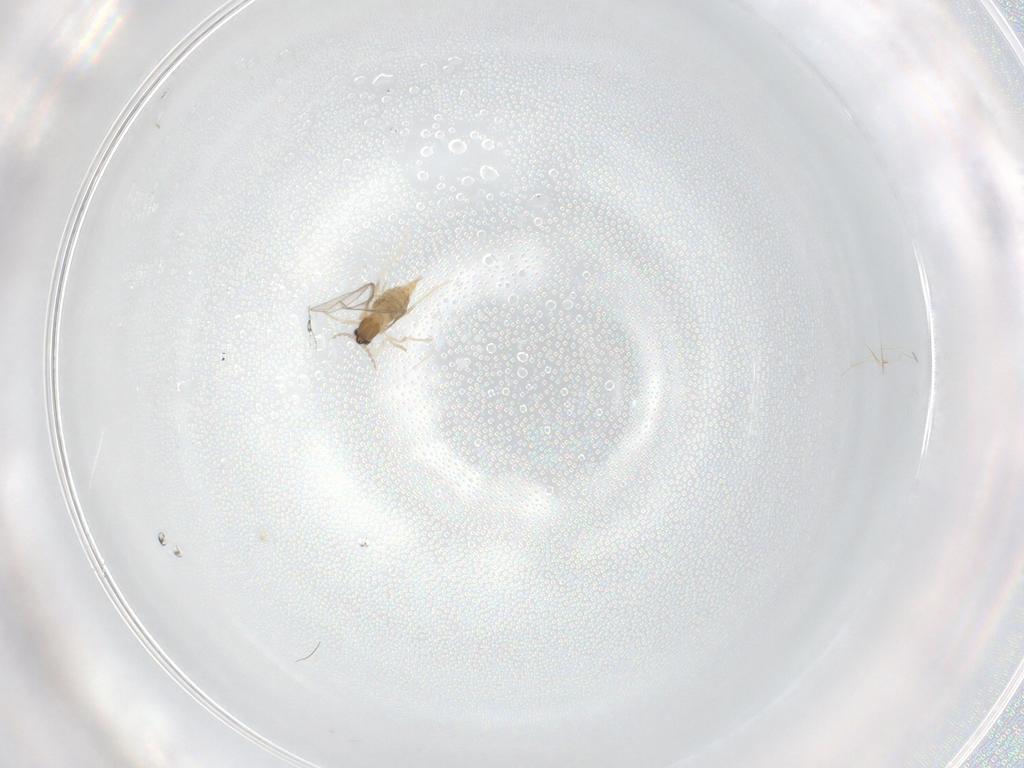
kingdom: Animalia
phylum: Arthropoda
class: Insecta
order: Diptera
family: Cecidomyiidae
